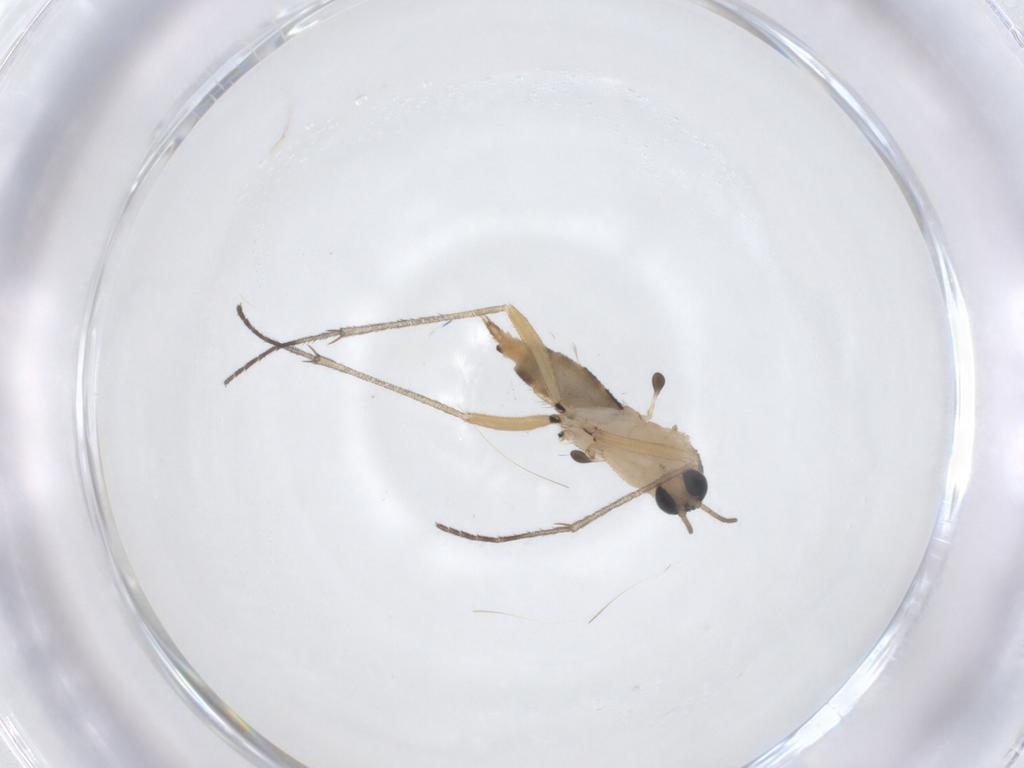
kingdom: Animalia
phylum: Arthropoda
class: Insecta
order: Diptera
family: Sciaridae
